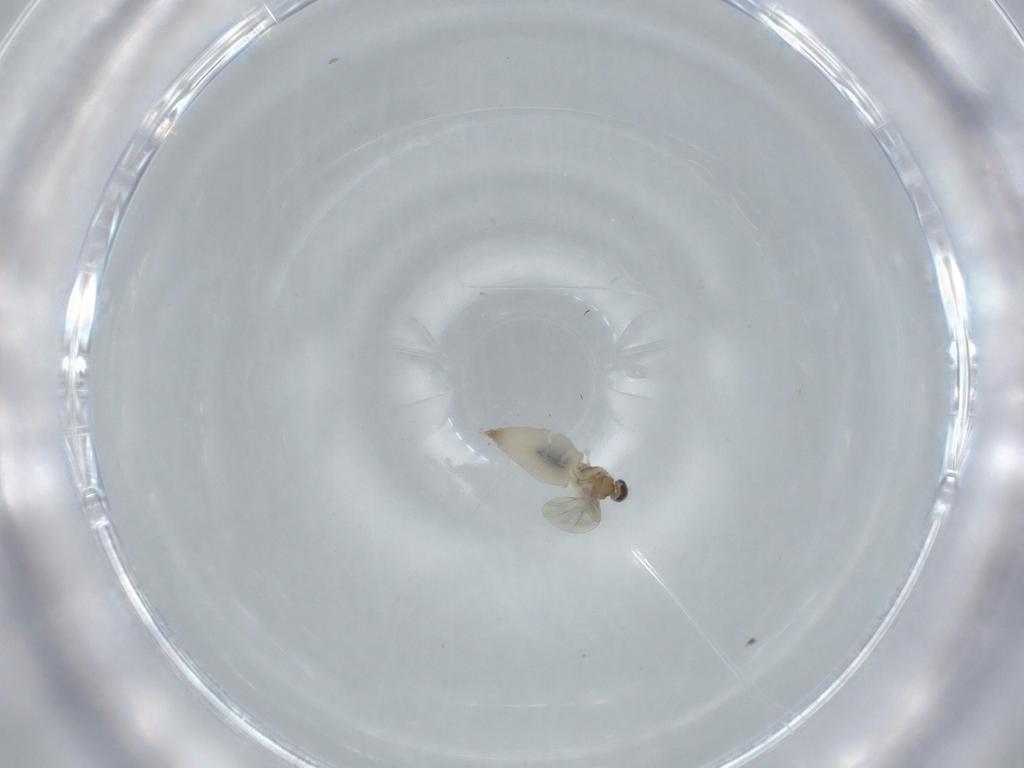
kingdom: Animalia
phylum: Arthropoda
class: Insecta
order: Diptera
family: Cecidomyiidae
